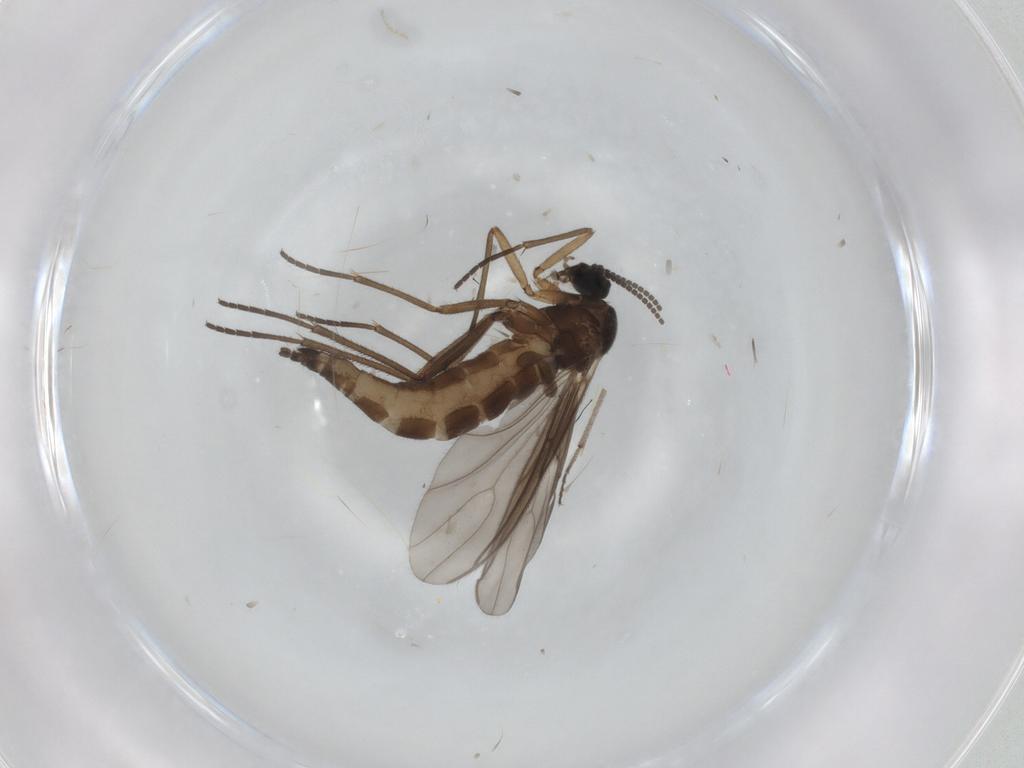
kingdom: Animalia
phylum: Arthropoda
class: Insecta
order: Diptera
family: Sciaridae
